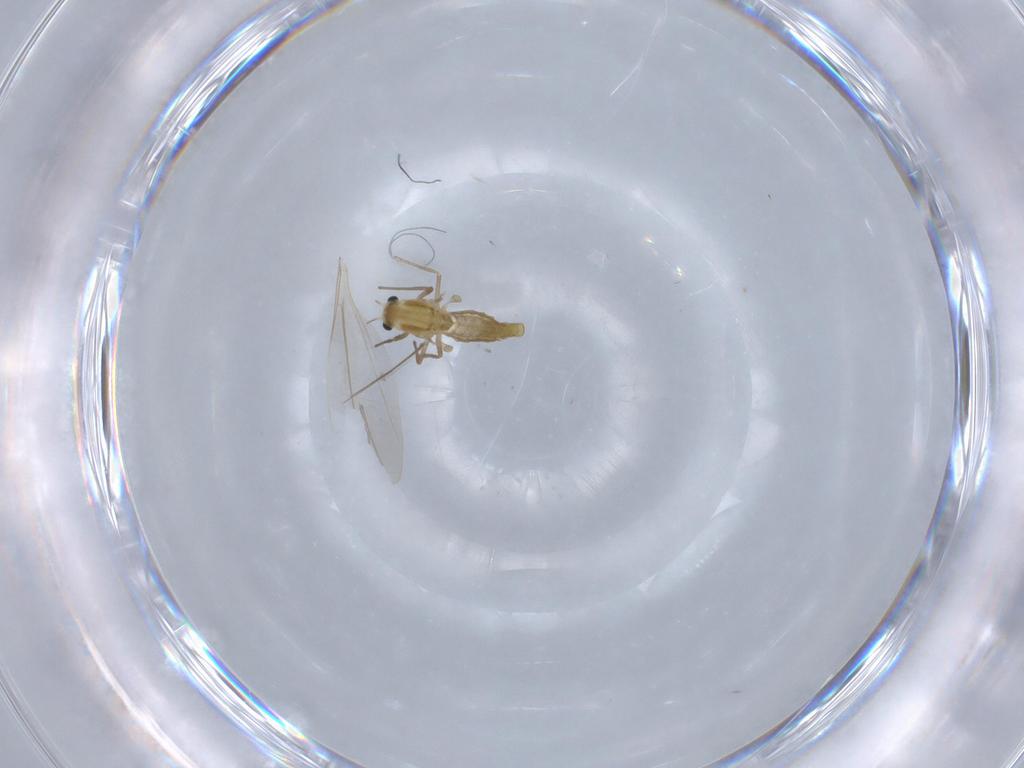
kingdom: Animalia
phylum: Arthropoda
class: Insecta
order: Diptera
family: Chironomidae
